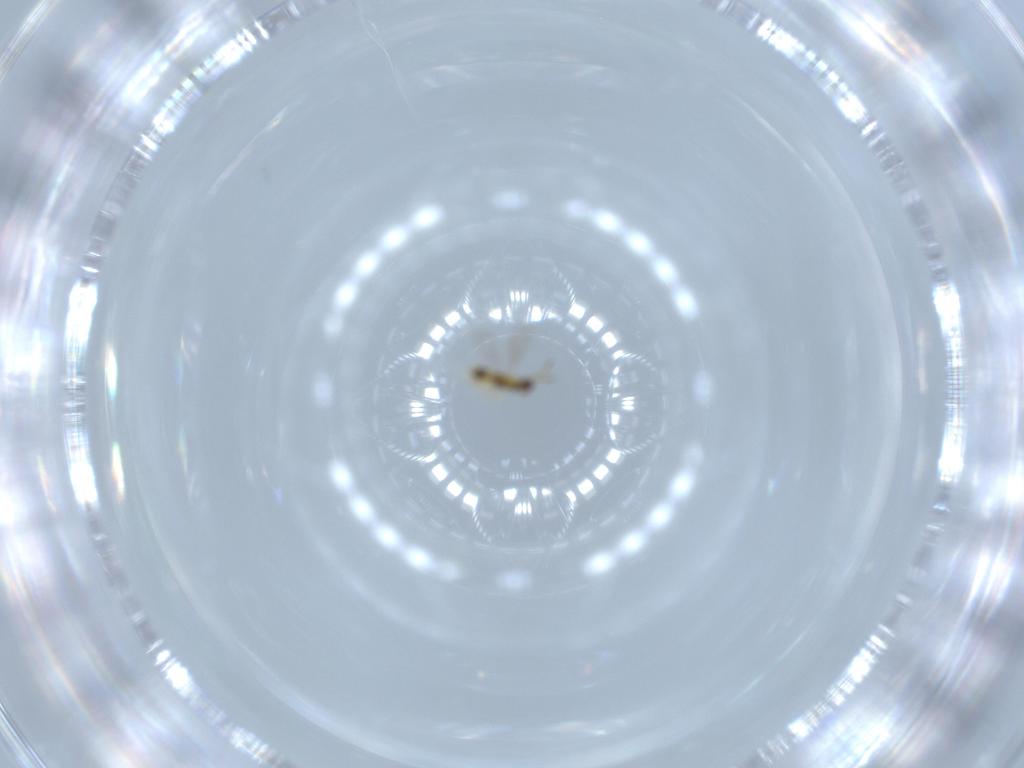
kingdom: Animalia
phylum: Arthropoda
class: Insecta
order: Hymenoptera
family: Aphelinidae
